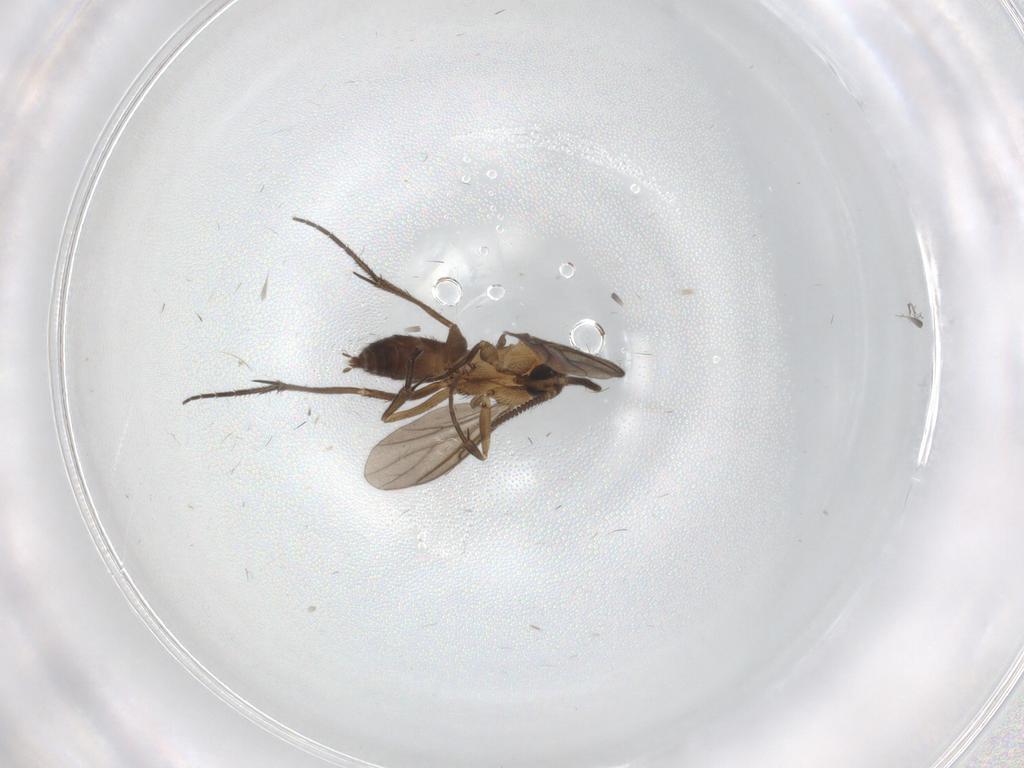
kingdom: Animalia
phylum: Arthropoda
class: Insecta
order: Diptera
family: Mycetophilidae
